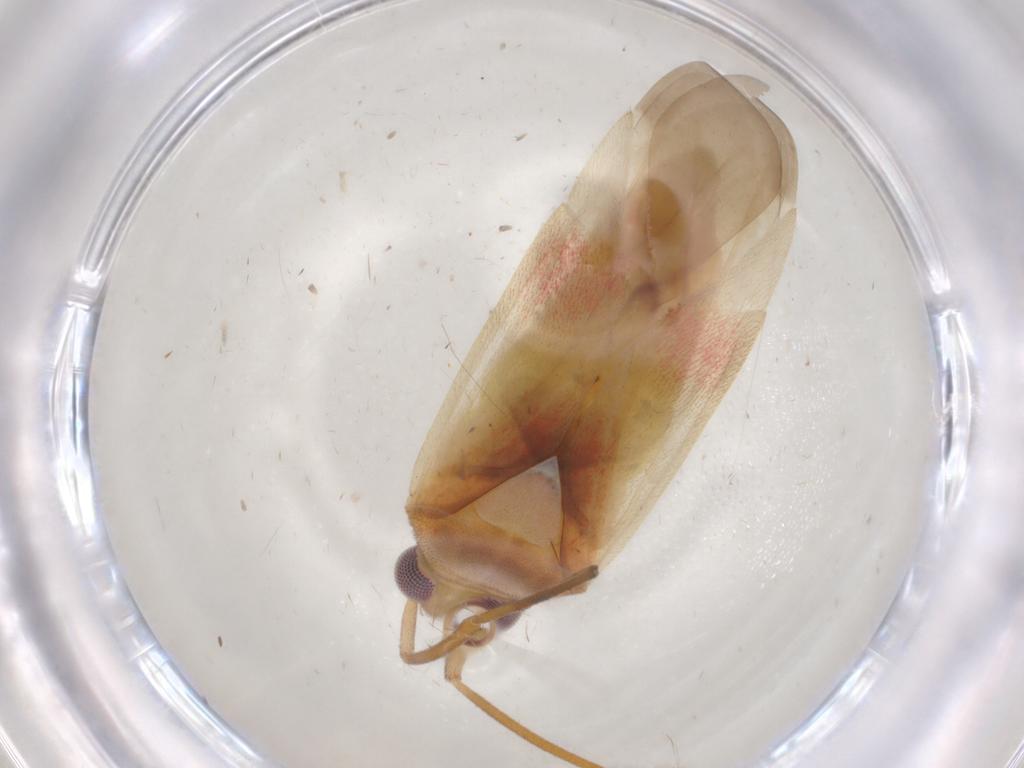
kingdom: Animalia
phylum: Arthropoda
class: Insecta
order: Hemiptera
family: Miridae
